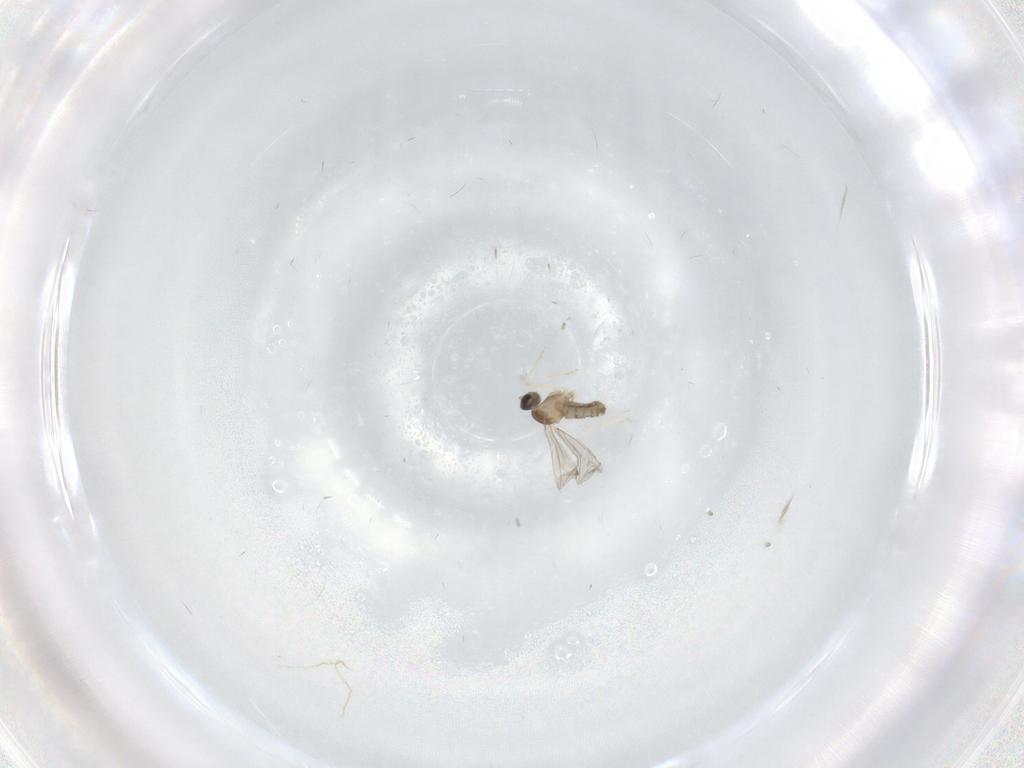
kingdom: Animalia
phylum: Arthropoda
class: Insecta
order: Diptera
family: Cecidomyiidae
